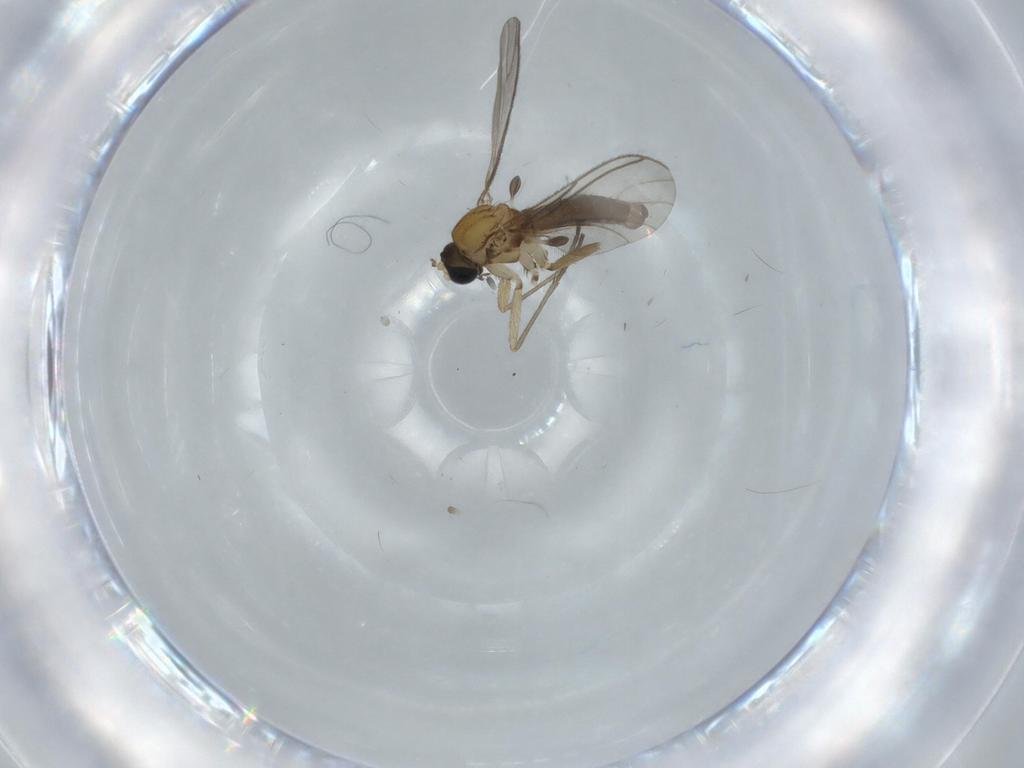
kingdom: Animalia
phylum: Arthropoda
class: Insecta
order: Diptera
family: Sciaridae
